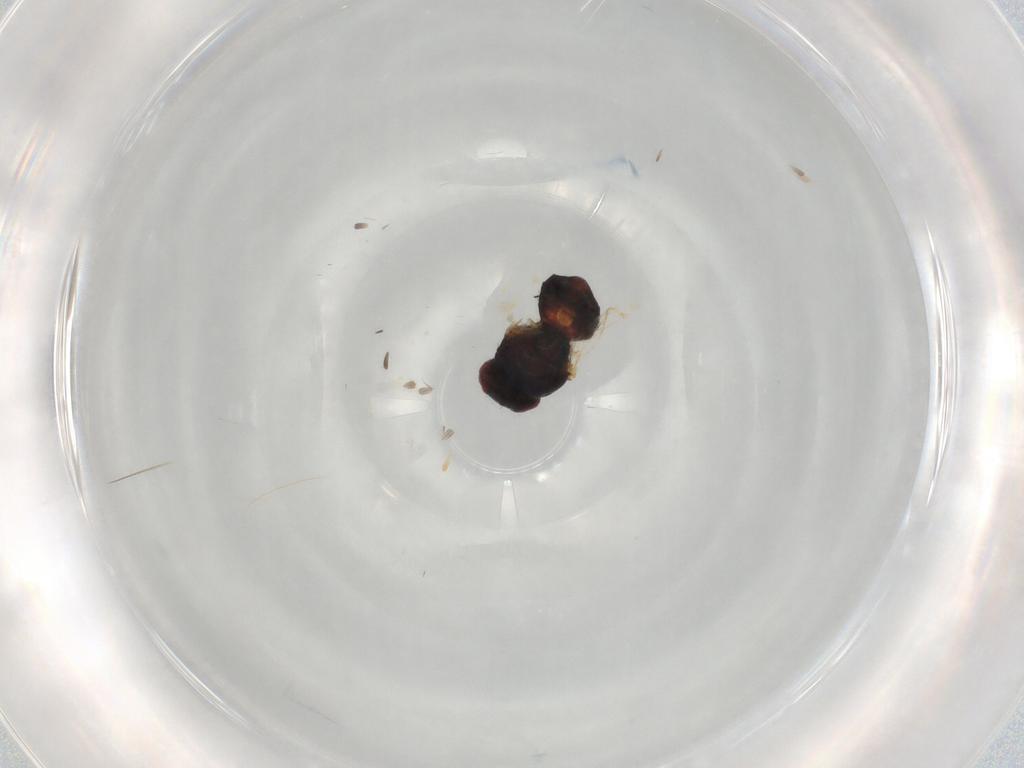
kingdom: Animalia
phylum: Arthropoda
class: Insecta
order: Diptera
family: Chloropidae
